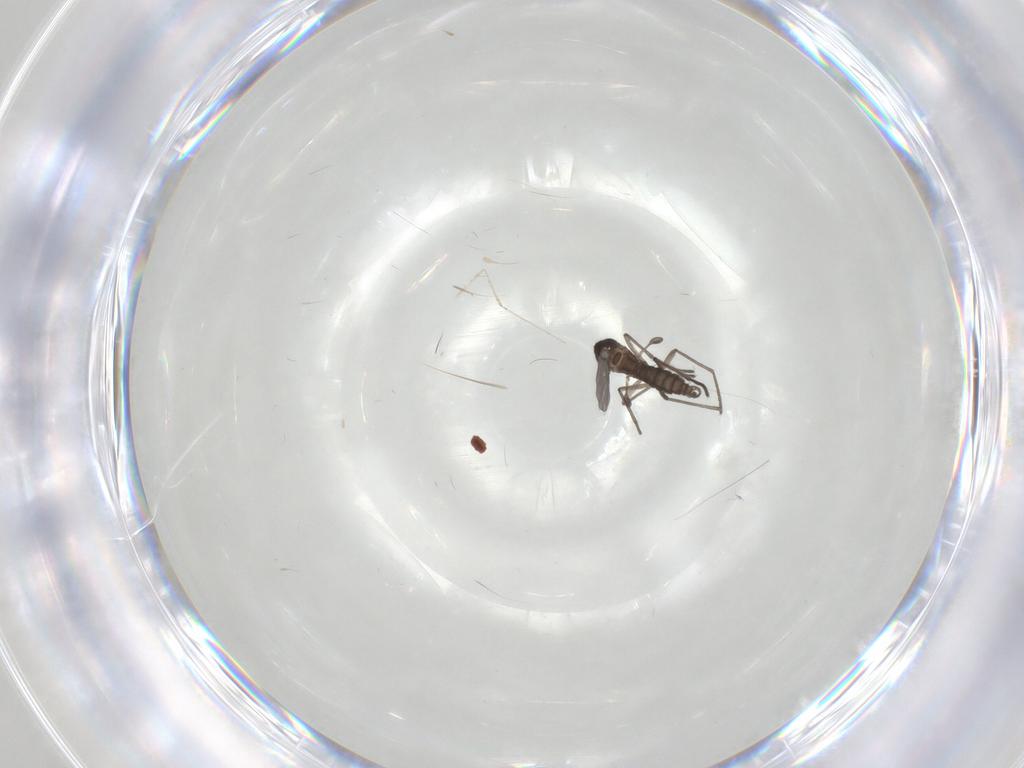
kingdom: Animalia
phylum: Arthropoda
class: Insecta
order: Diptera
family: Cecidomyiidae
